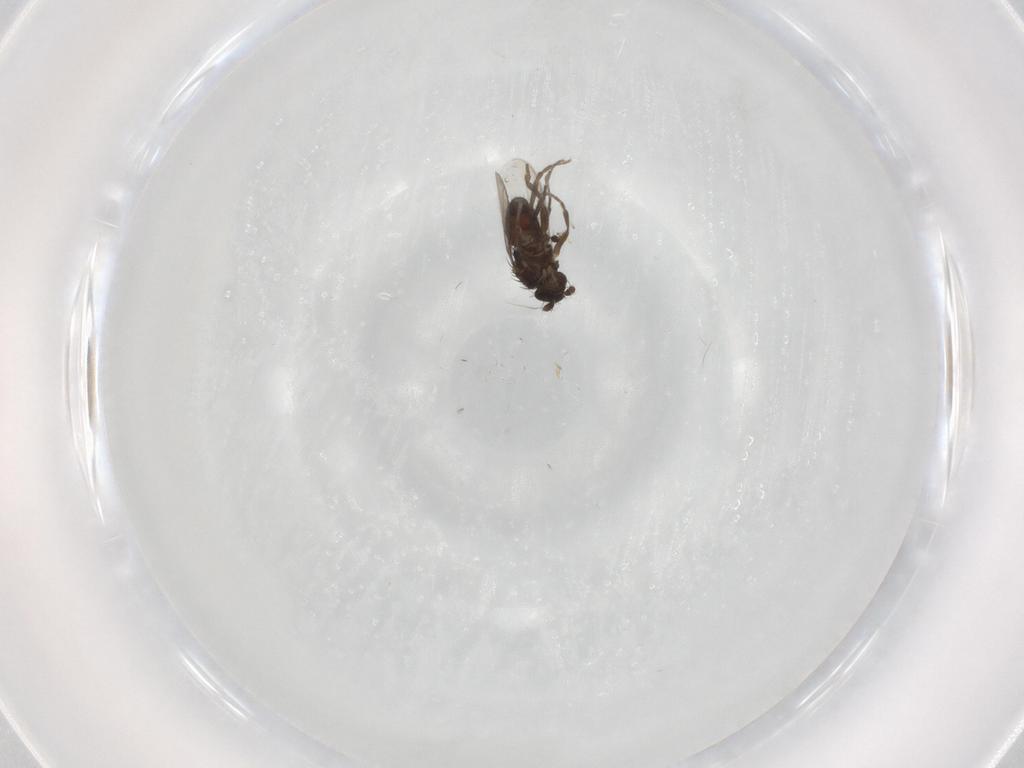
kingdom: Animalia
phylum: Arthropoda
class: Insecta
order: Diptera
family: Sphaeroceridae
